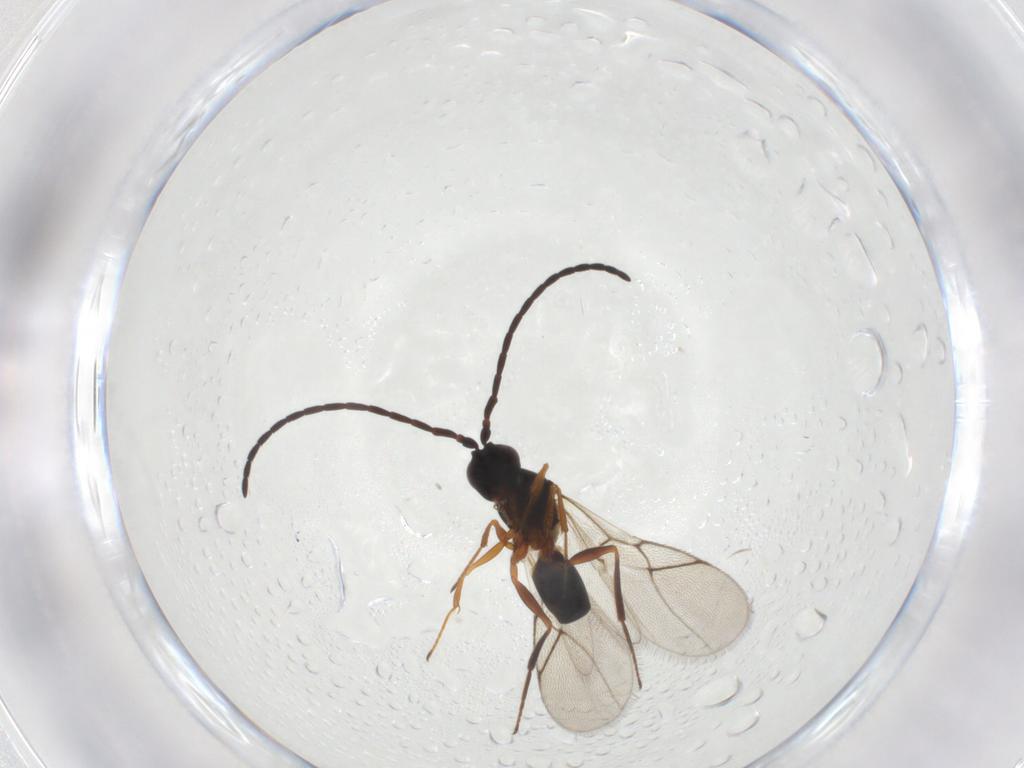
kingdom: Animalia
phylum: Arthropoda
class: Insecta
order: Hymenoptera
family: Figitidae
